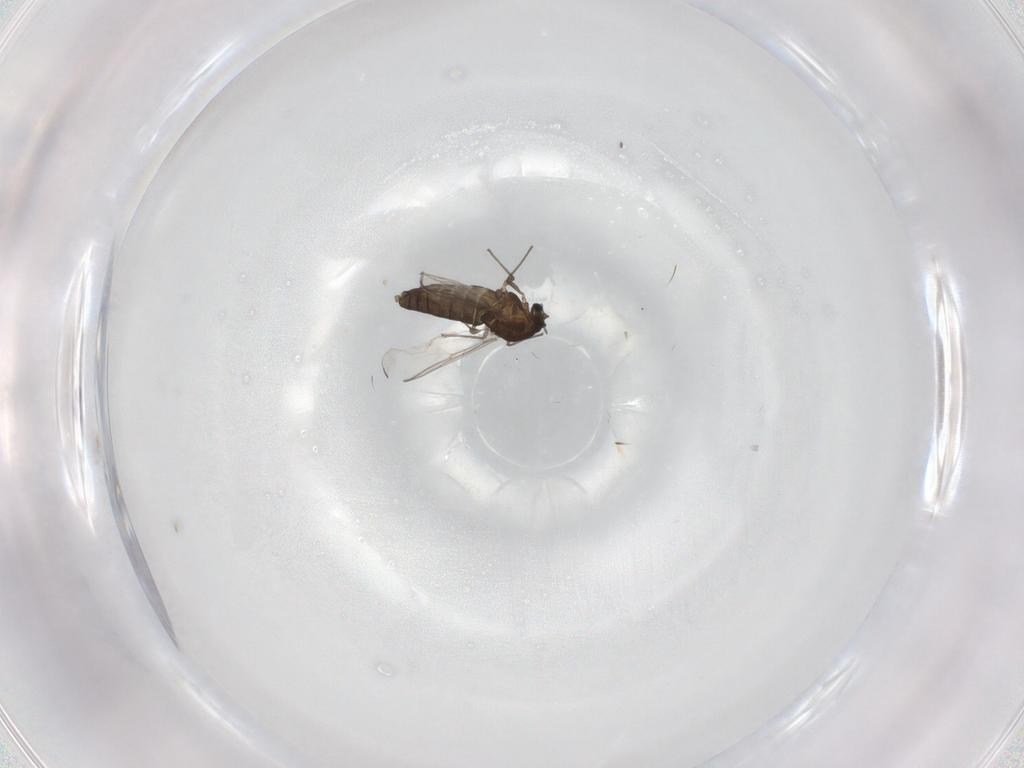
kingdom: Animalia
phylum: Arthropoda
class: Insecta
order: Diptera
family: Chironomidae
